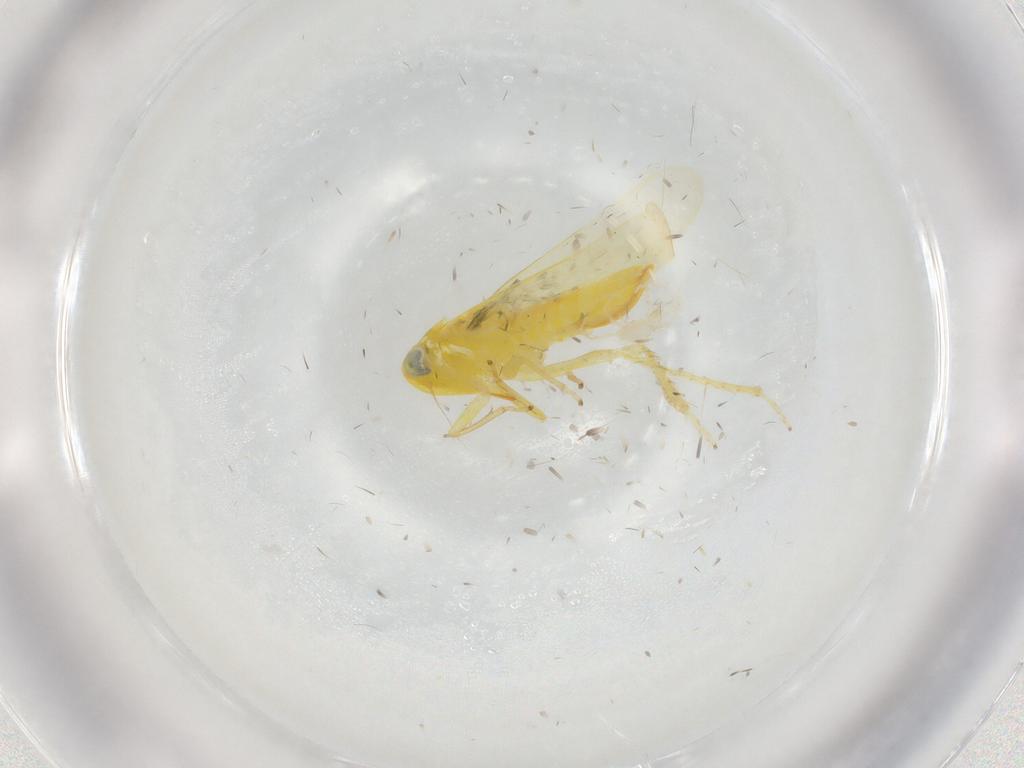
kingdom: Animalia
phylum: Arthropoda
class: Insecta
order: Hemiptera
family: Cicadellidae
